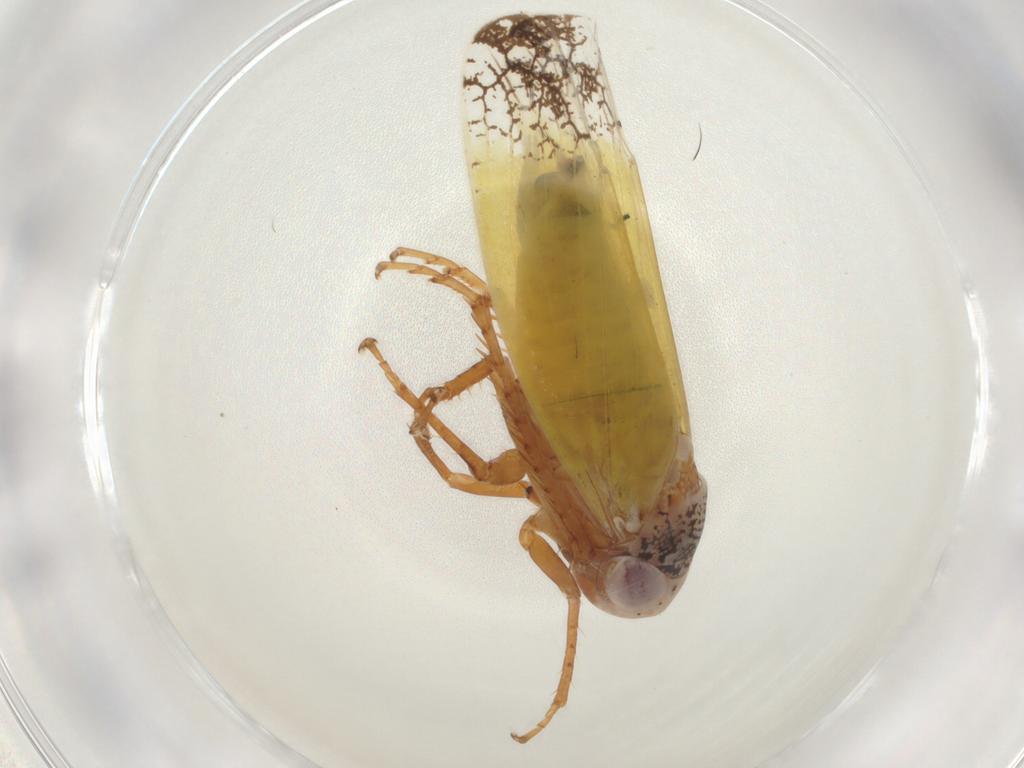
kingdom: Animalia
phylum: Arthropoda
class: Insecta
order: Hemiptera
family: Cicadellidae
